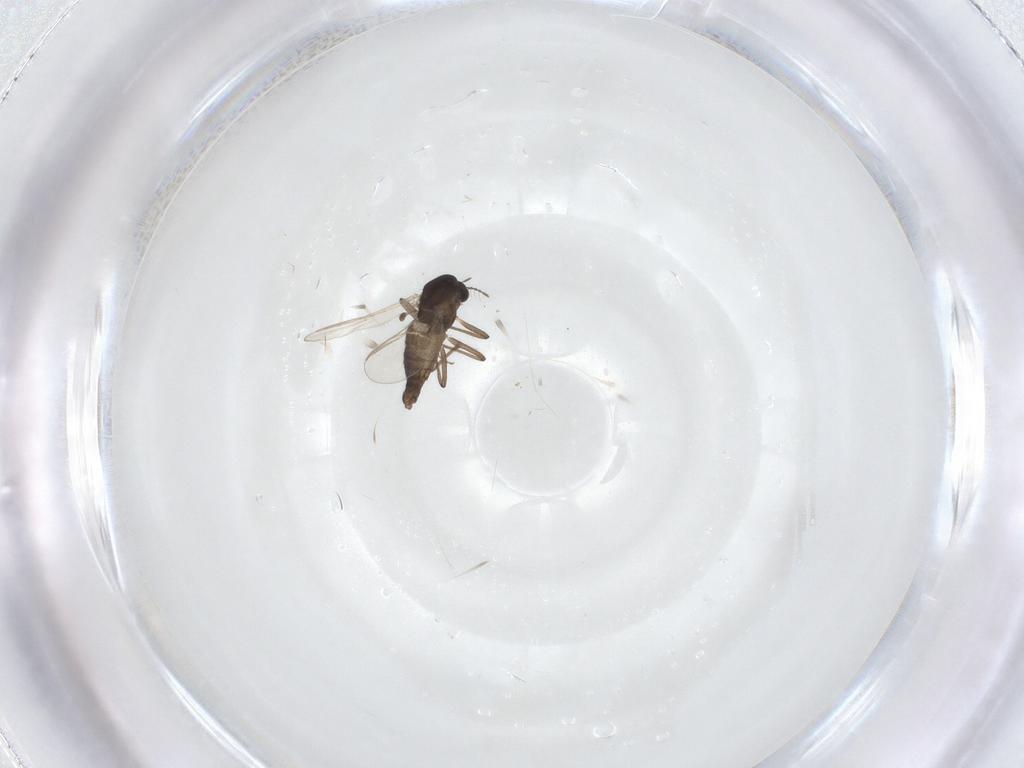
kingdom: Animalia
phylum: Arthropoda
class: Insecta
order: Diptera
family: Chironomidae
